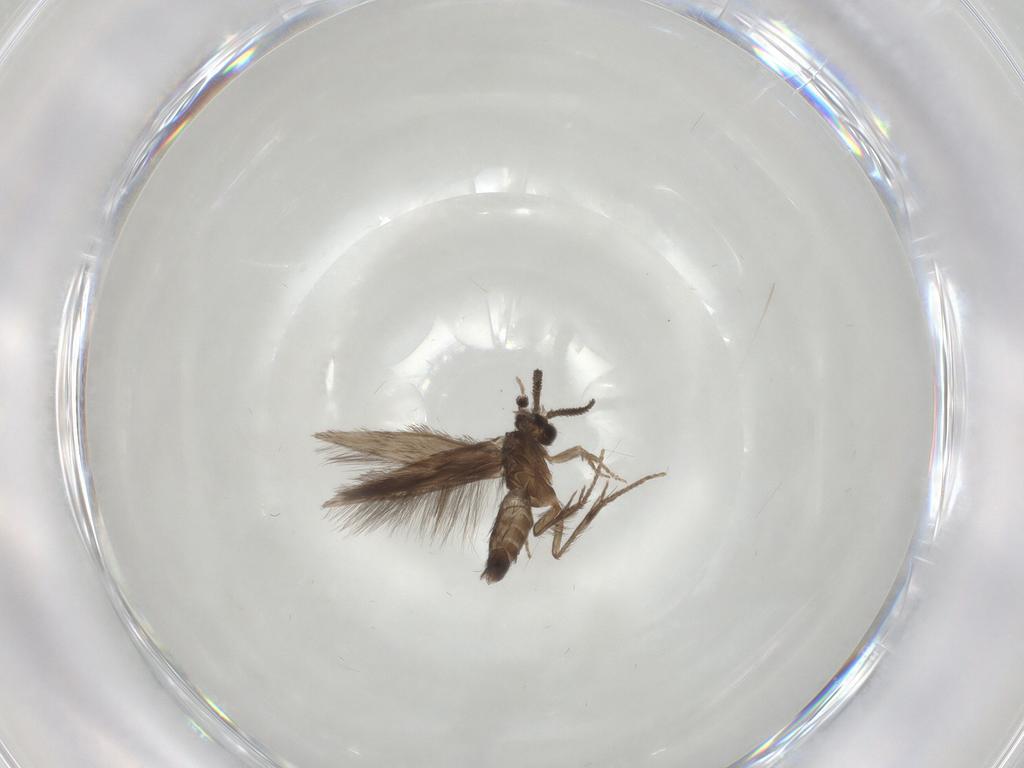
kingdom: Animalia
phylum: Arthropoda
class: Insecta
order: Trichoptera
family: Hydroptilidae
